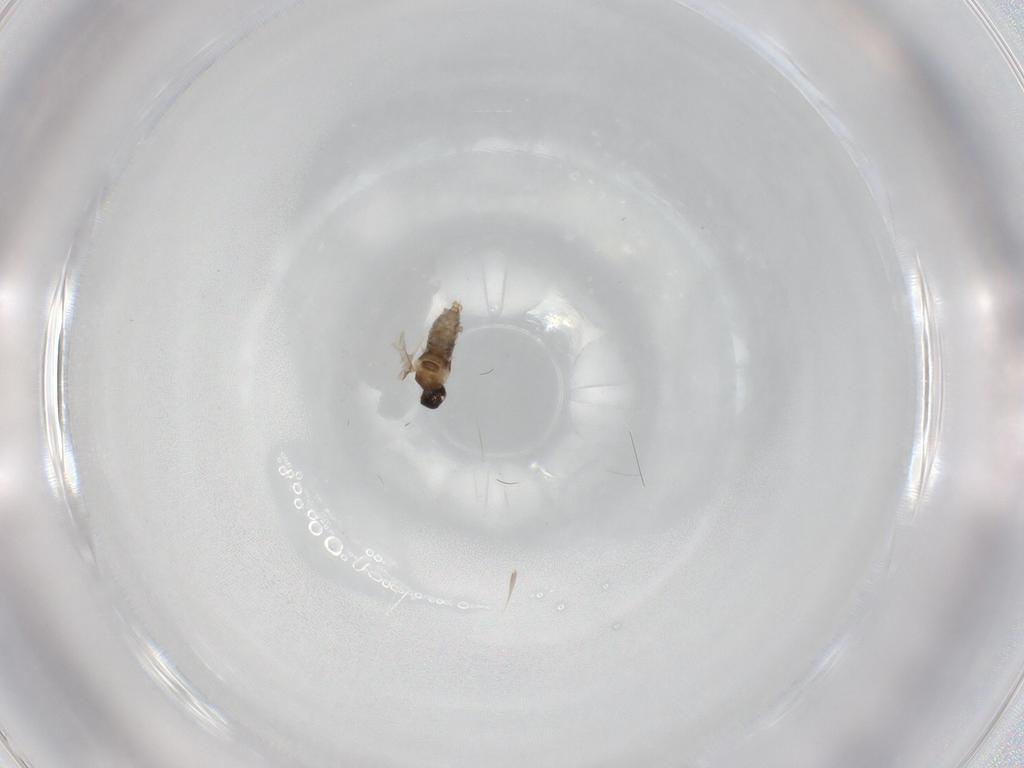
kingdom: Animalia
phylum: Arthropoda
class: Insecta
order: Diptera
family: Cecidomyiidae
